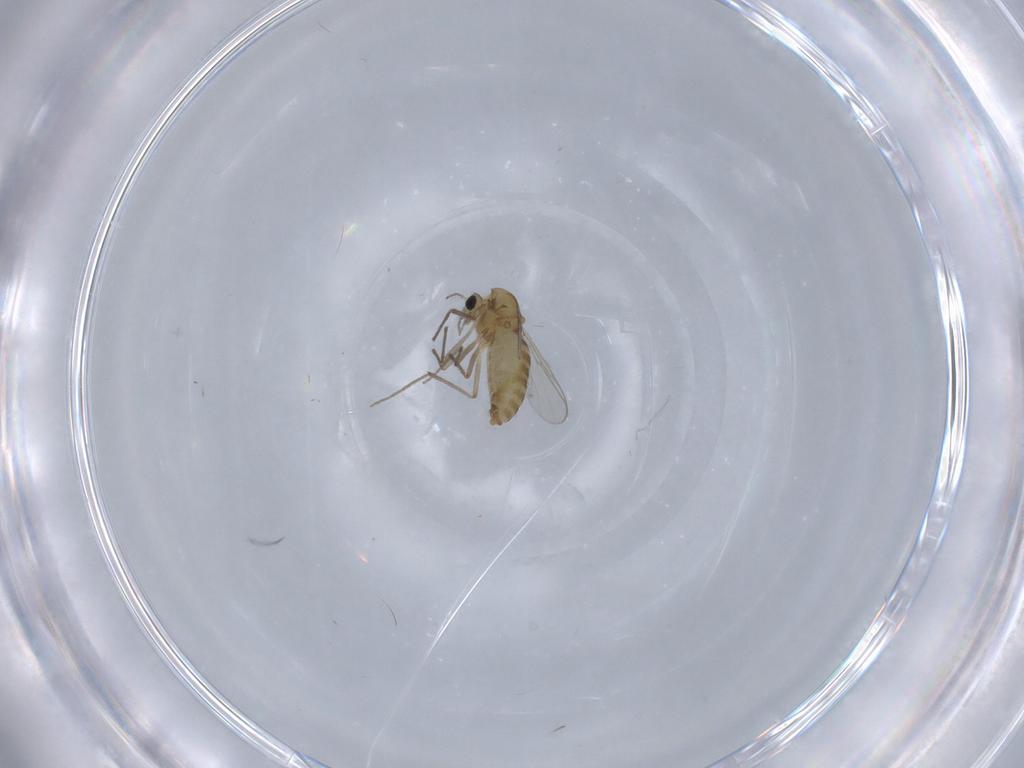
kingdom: Animalia
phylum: Arthropoda
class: Insecta
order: Diptera
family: Chironomidae
